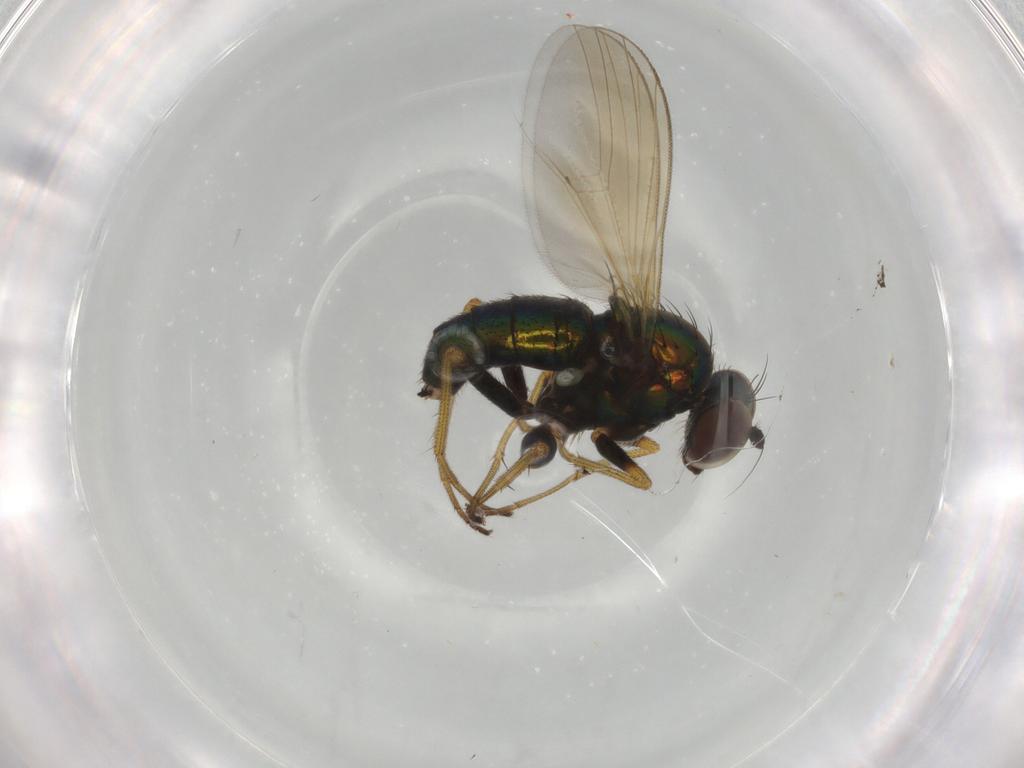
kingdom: Animalia
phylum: Arthropoda
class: Insecta
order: Diptera
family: Dolichopodidae
